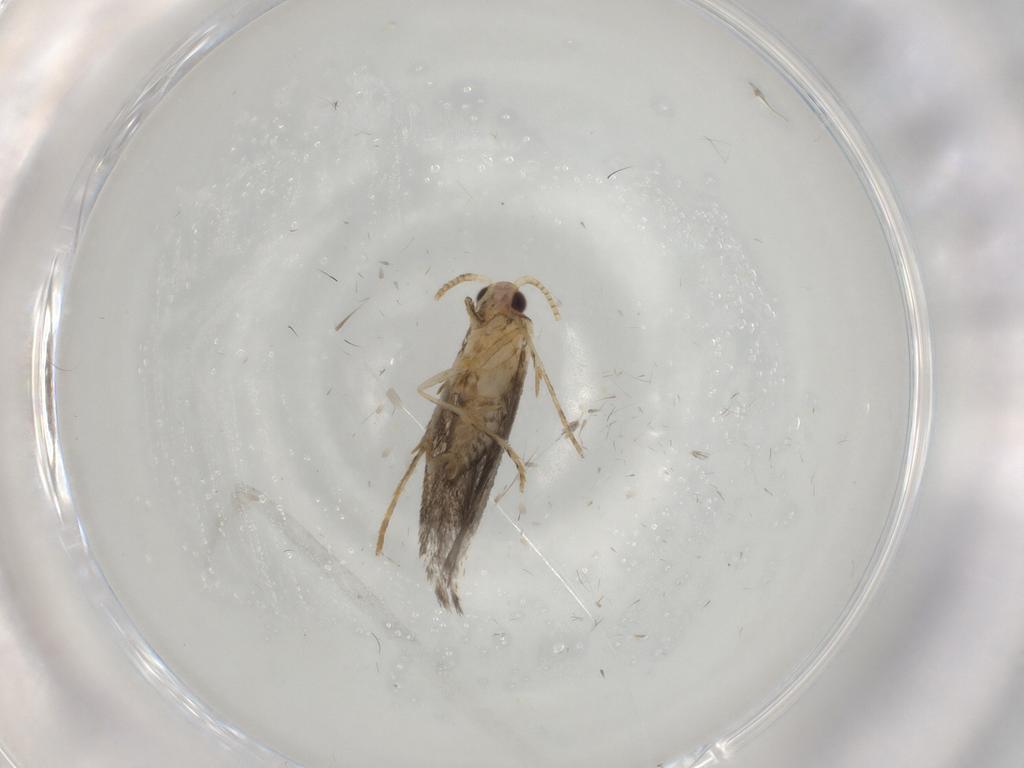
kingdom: Animalia
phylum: Arthropoda
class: Insecta
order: Lepidoptera
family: Tineidae
